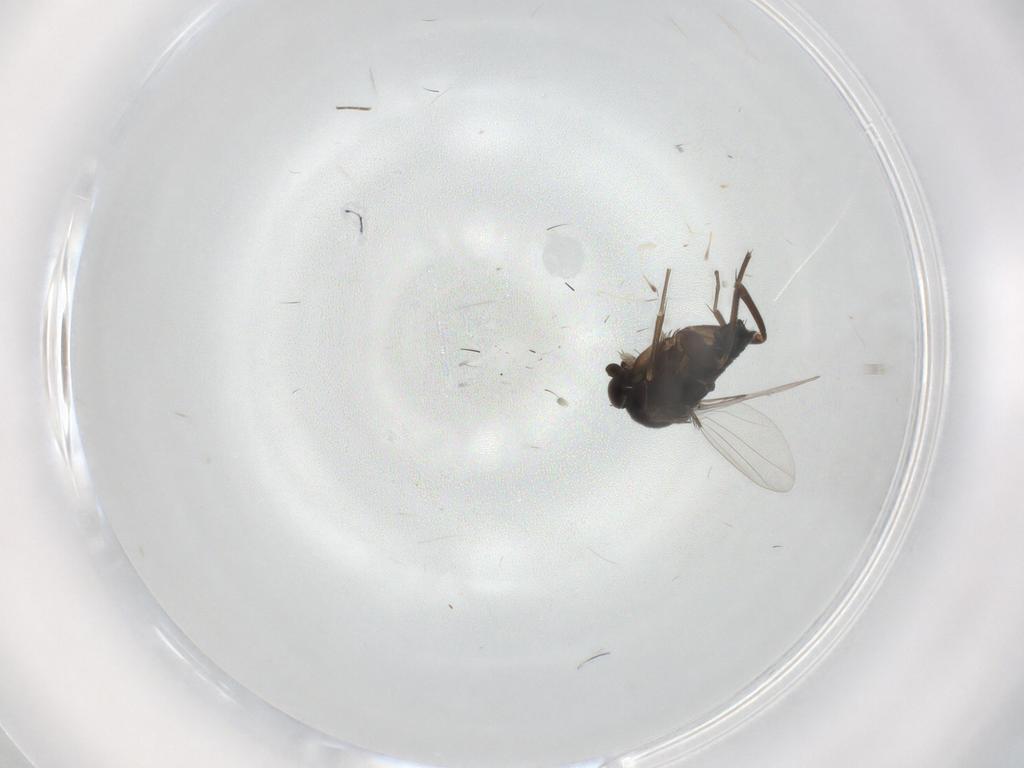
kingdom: Animalia
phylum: Arthropoda
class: Insecta
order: Diptera
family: Phoridae
